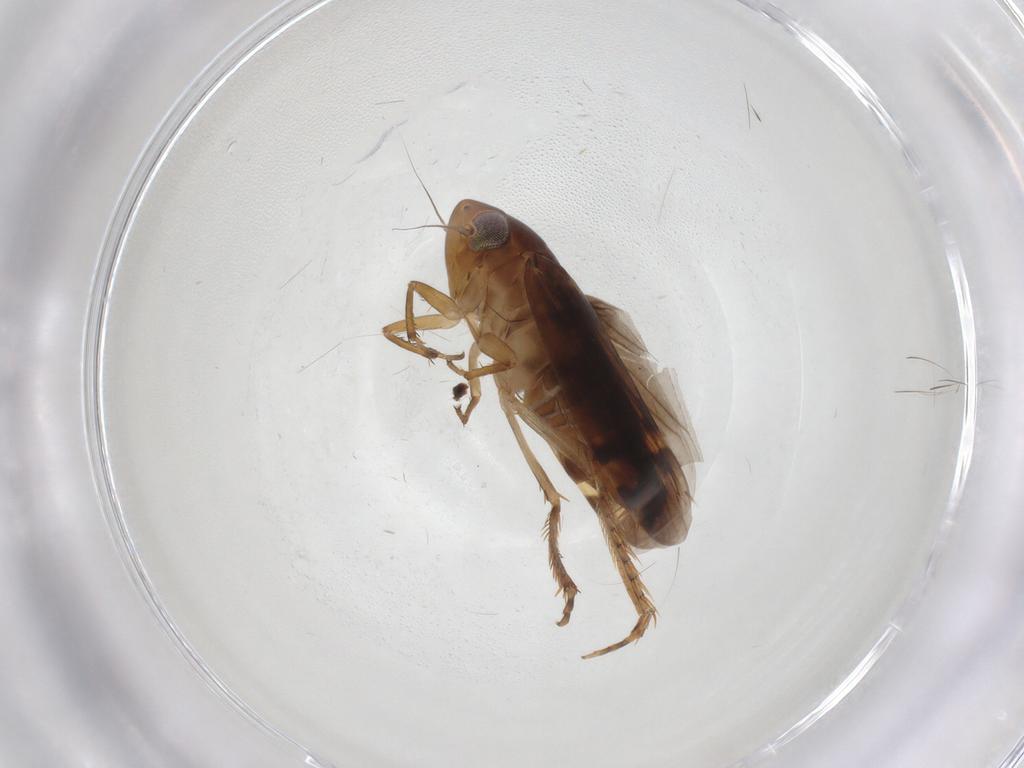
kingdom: Animalia
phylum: Arthropoda
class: Insecta
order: Hemiptera
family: Cicadellidae
